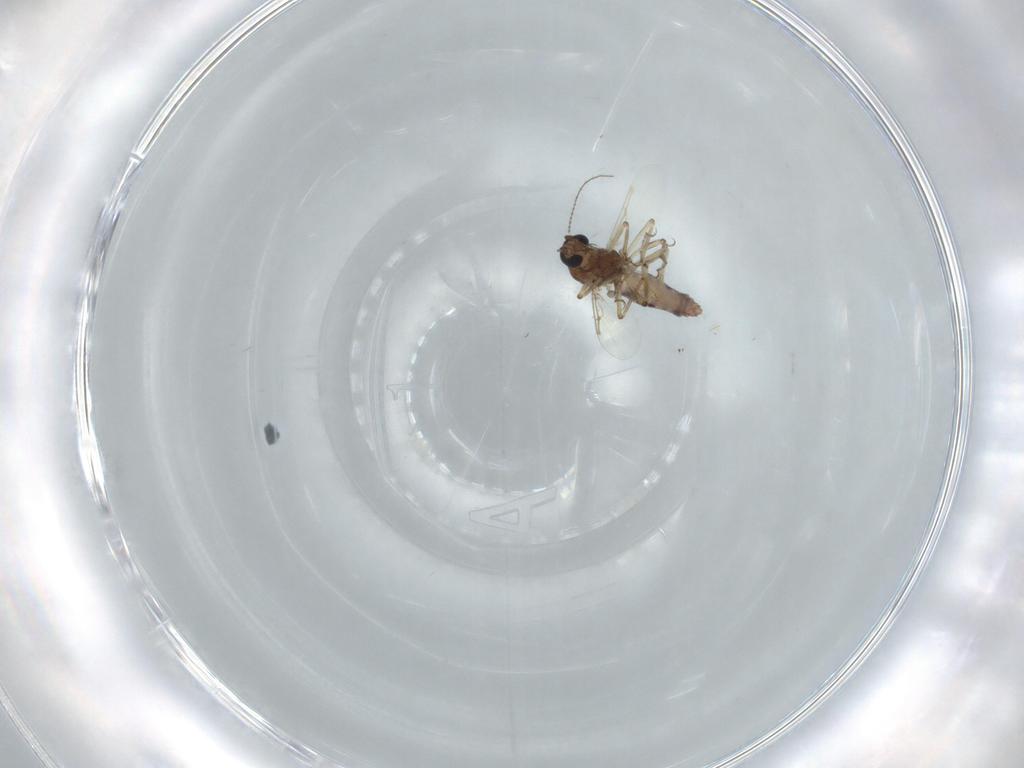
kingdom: Animalia
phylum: Arthropoda
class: Insecta
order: Diptera
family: Ceratopogonidae
